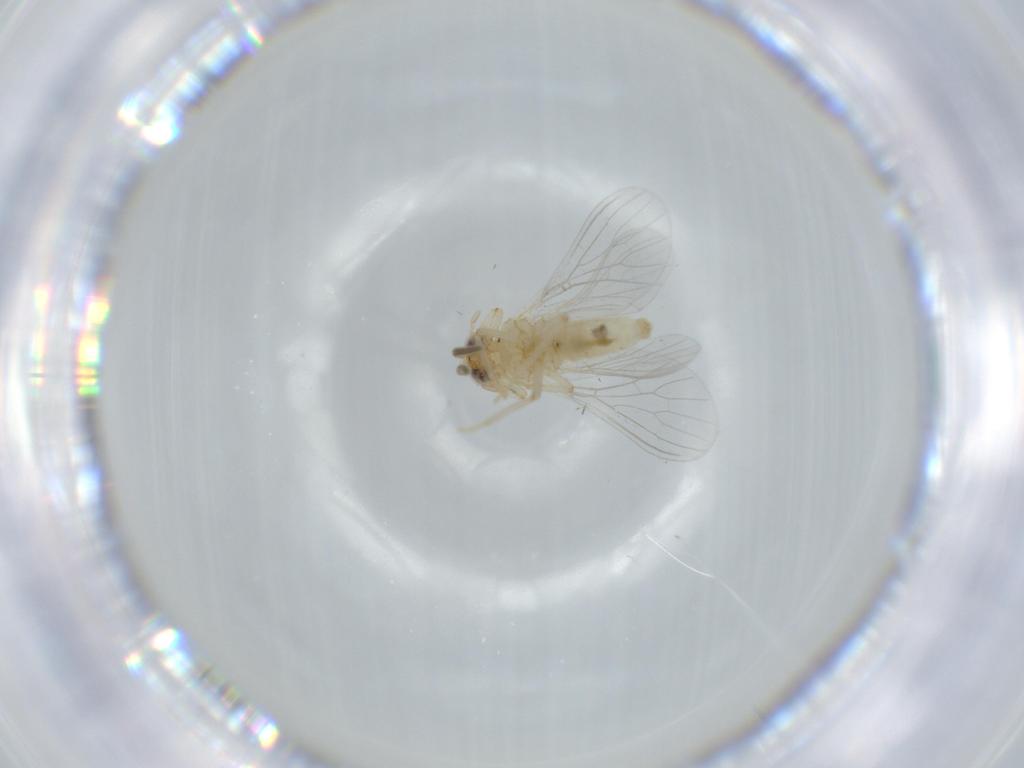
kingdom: Animalia
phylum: Arthropoda
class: Insecta
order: Neuroptera
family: Coniopterygidae
